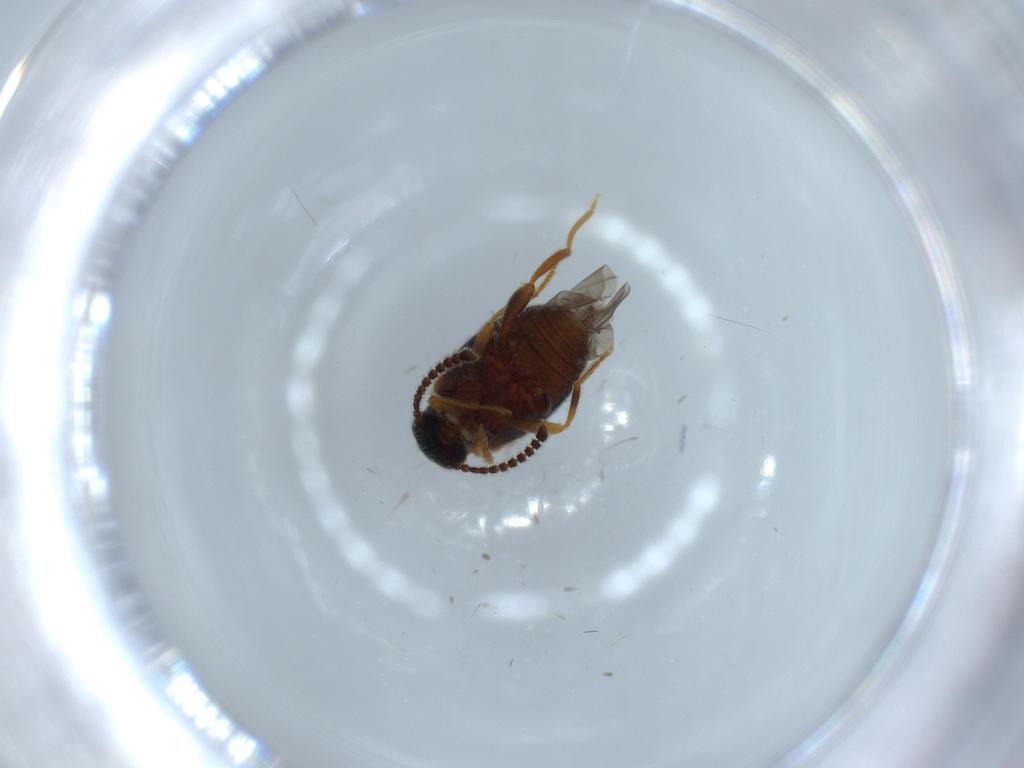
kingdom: Animalia
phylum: Arthropoda
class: Insecta
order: Coleoptera
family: Aderidae
